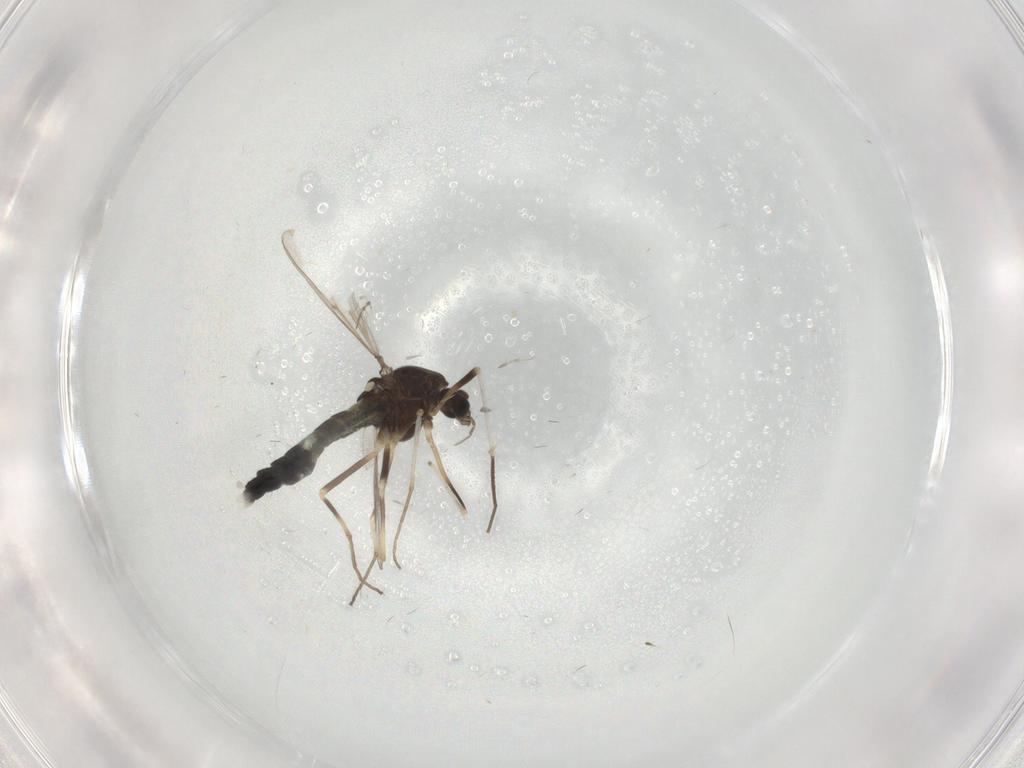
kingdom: Animalia
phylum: Arthropoda
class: Insecta
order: Diptera
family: Chironomidae
